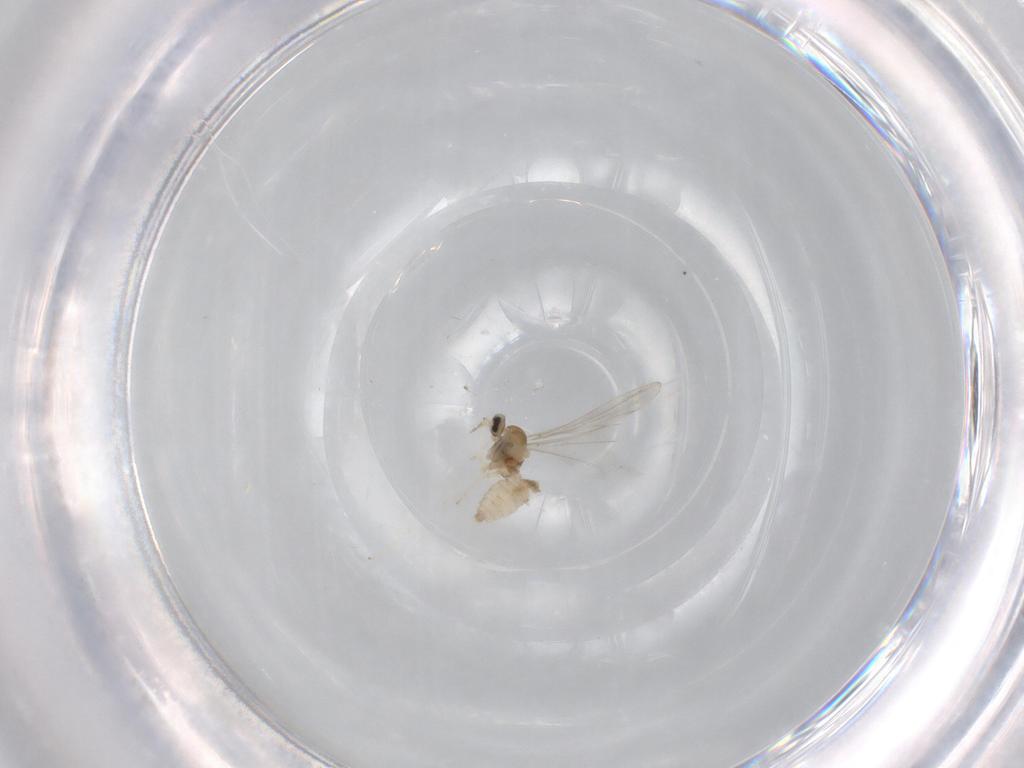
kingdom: Animalia
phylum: Arthropoda
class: Insecta
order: Diptera
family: Cecidomyiidae
